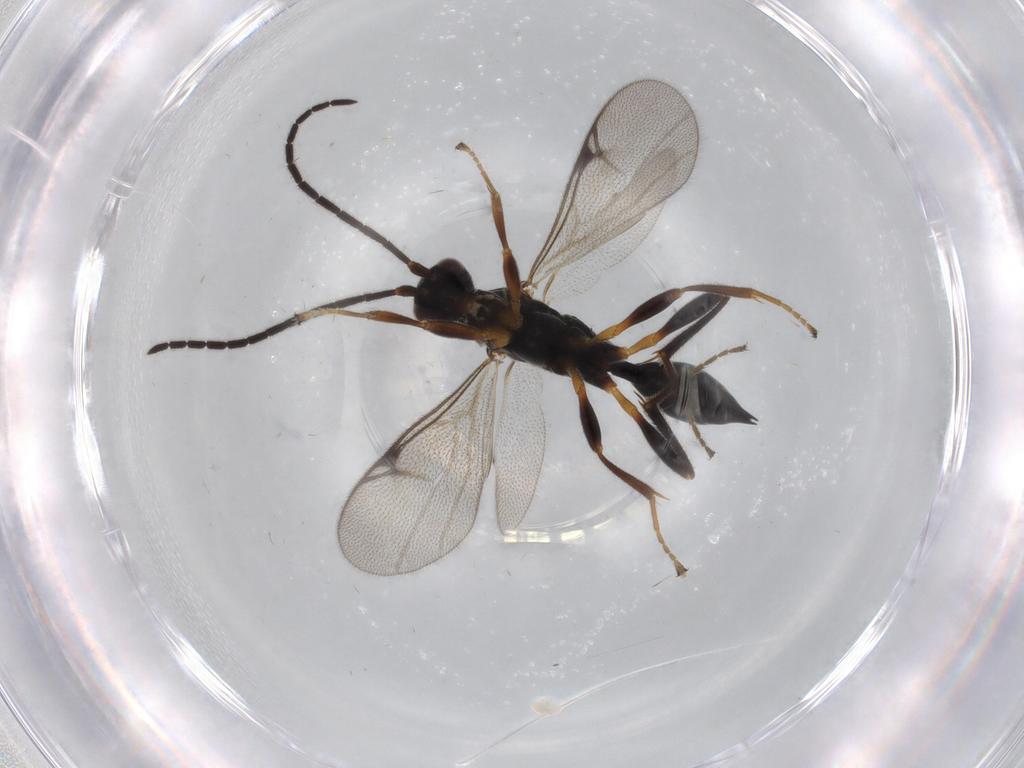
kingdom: Animalia
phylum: Arthropoda
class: Insecta
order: Hymenoptera
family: Proctotrupidae
